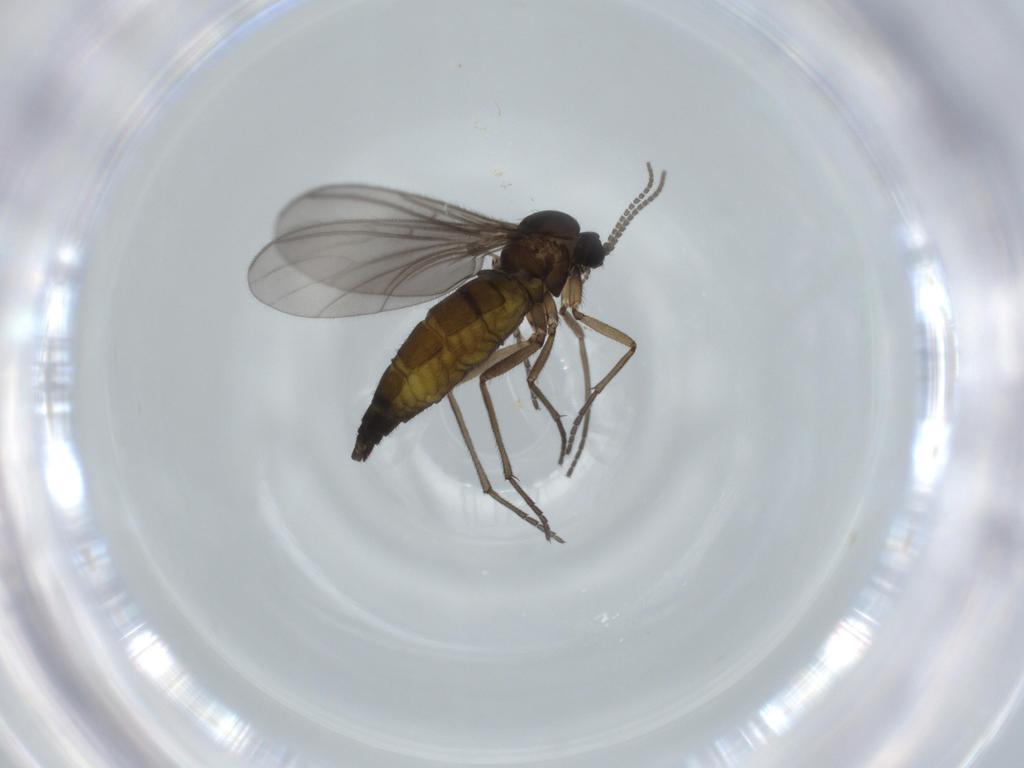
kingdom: Animalia
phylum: Arthropoda
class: Insecta
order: Diptera
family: Sciaridae
